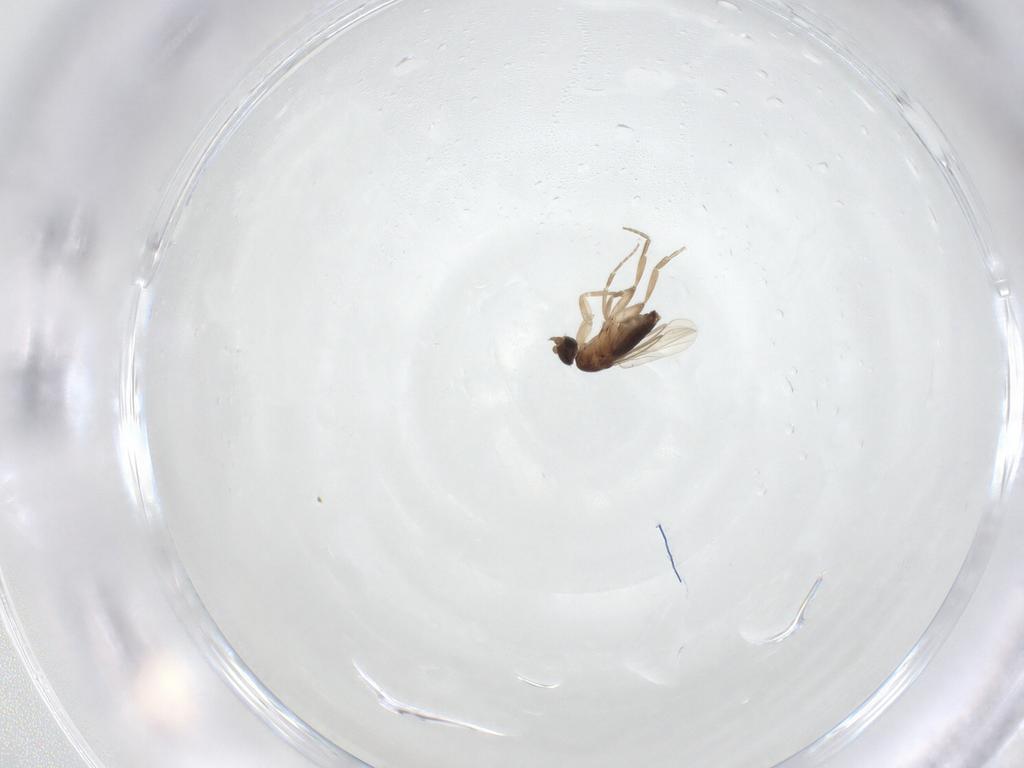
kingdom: Animalia
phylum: Arthropoda
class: Insecta
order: Diptera
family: Phoridae
